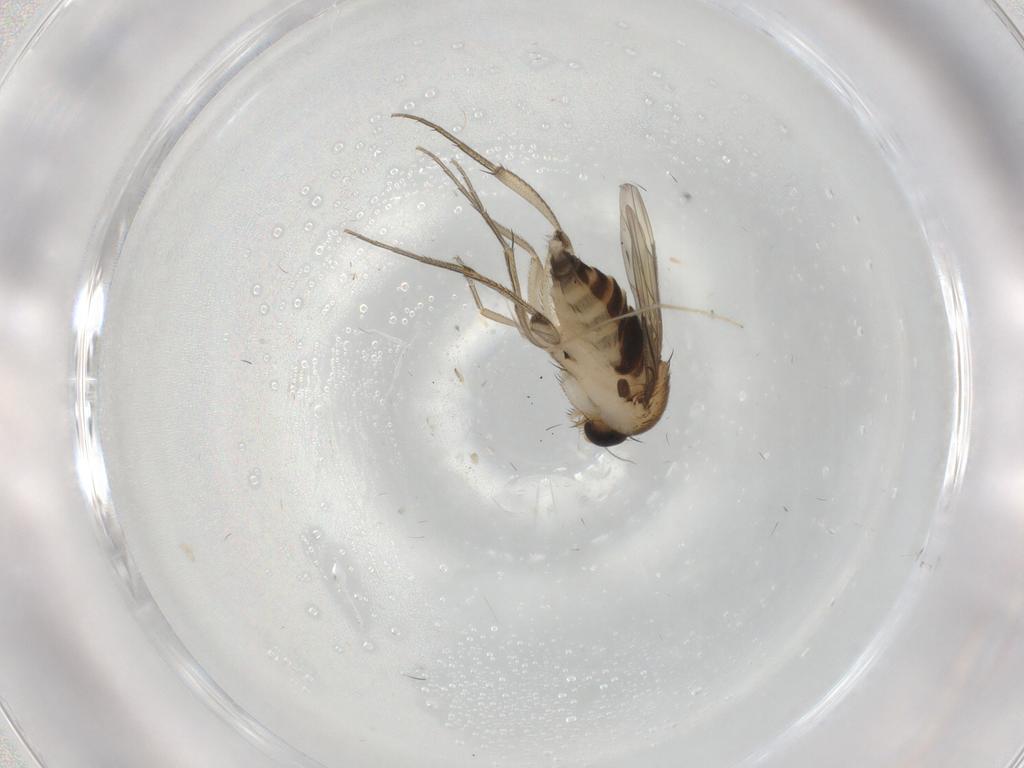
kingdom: Animalia
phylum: Arthropoda
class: Insecta
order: Diptera
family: Phoridae
